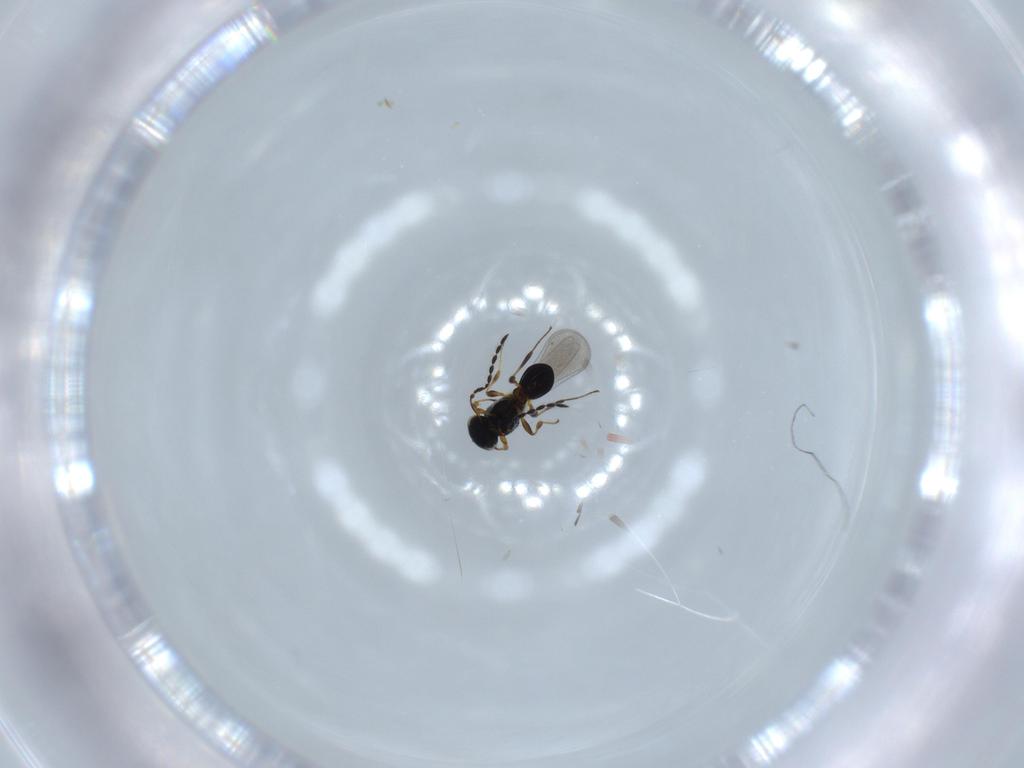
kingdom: Animalia
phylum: Arthropoda
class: Insecta
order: Hymenoptera
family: Platygastridae
